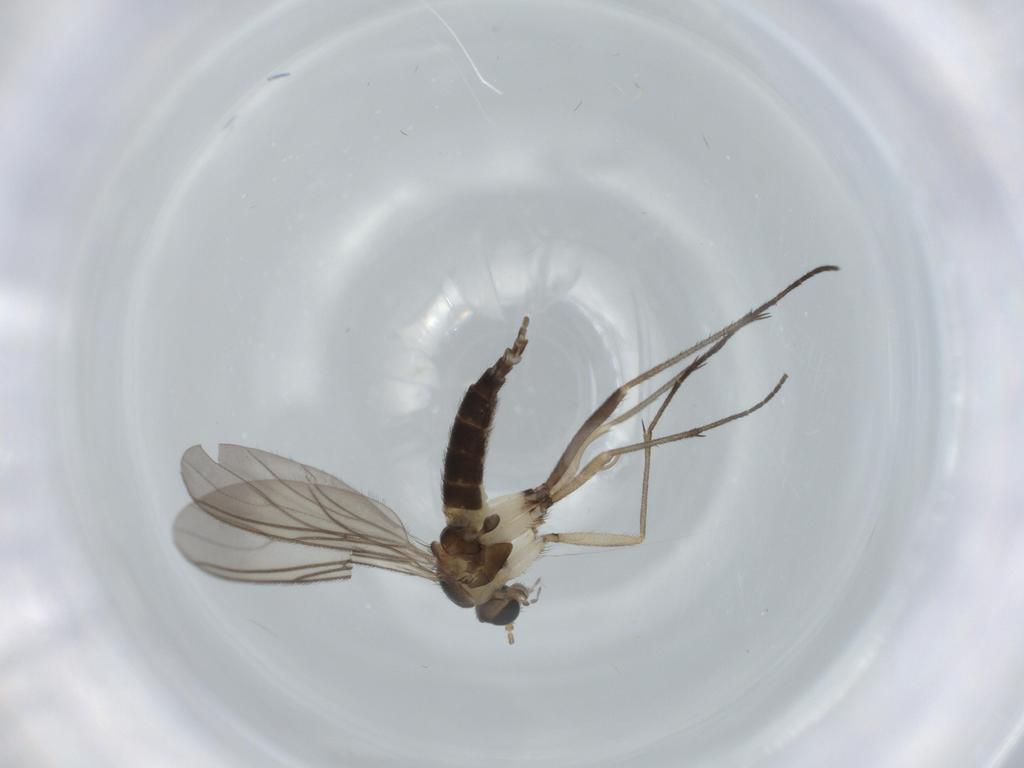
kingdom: Animalia
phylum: Arthropoda
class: Insecta
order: Diptera
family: Sciaridae
